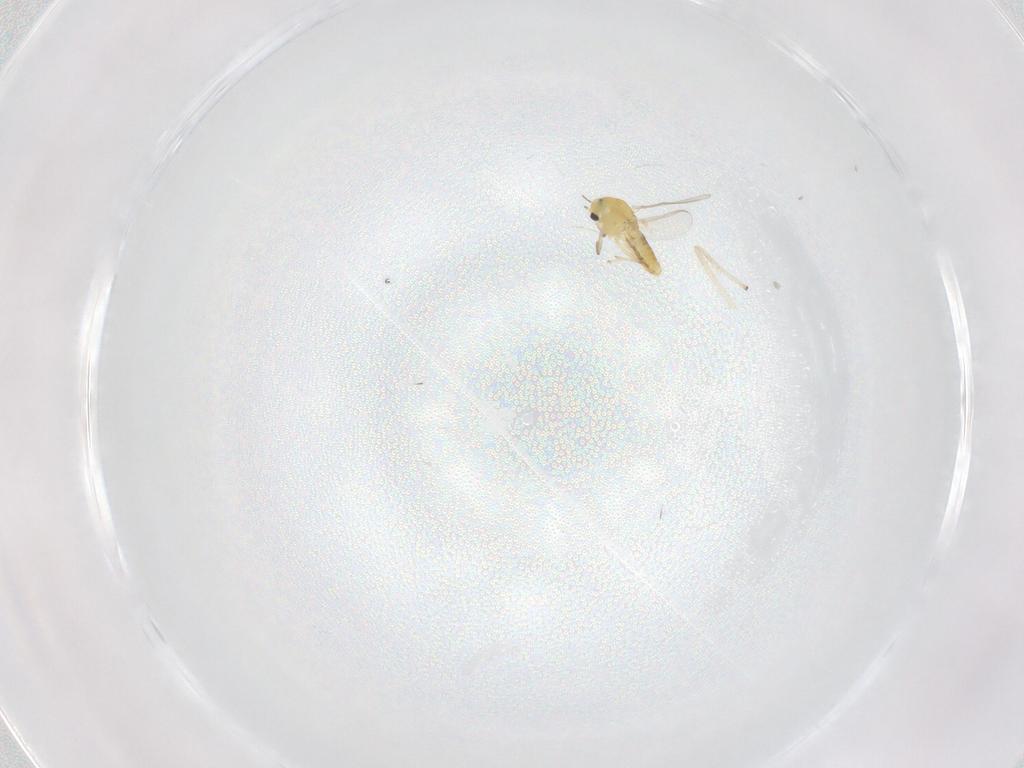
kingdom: Animalia
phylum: Arthropoda
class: Insecta
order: Diptera
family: Chironomidae
